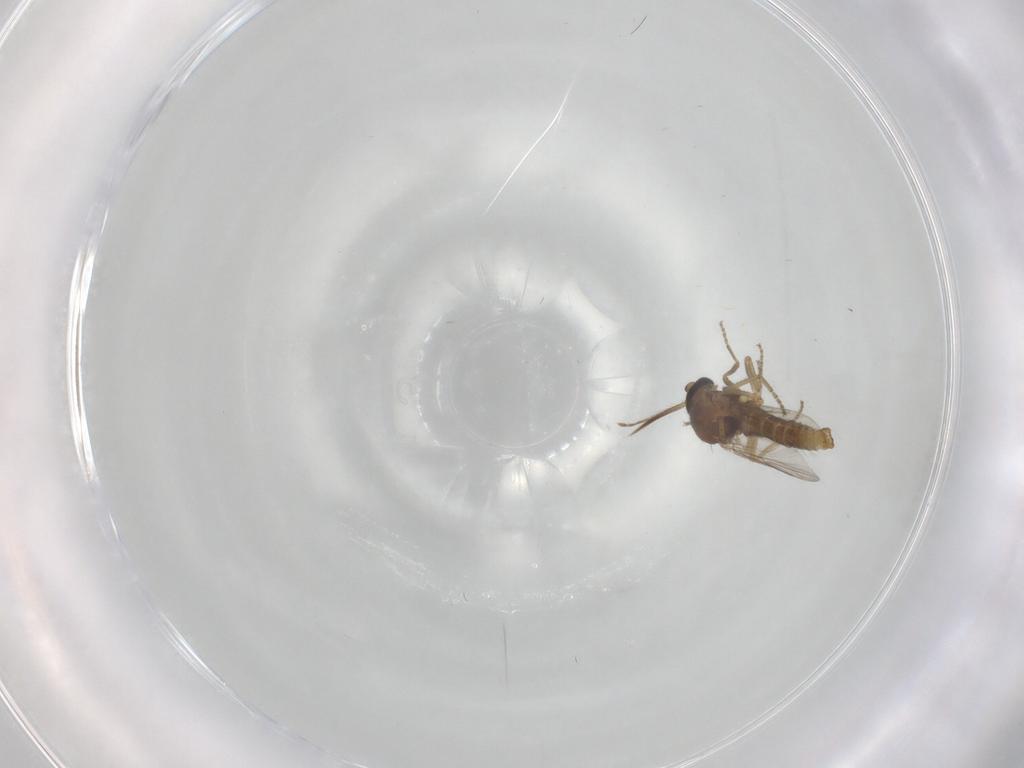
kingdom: Animalia
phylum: Arthropoda
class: Insecta
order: Diptera
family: Ceratopogonidae
